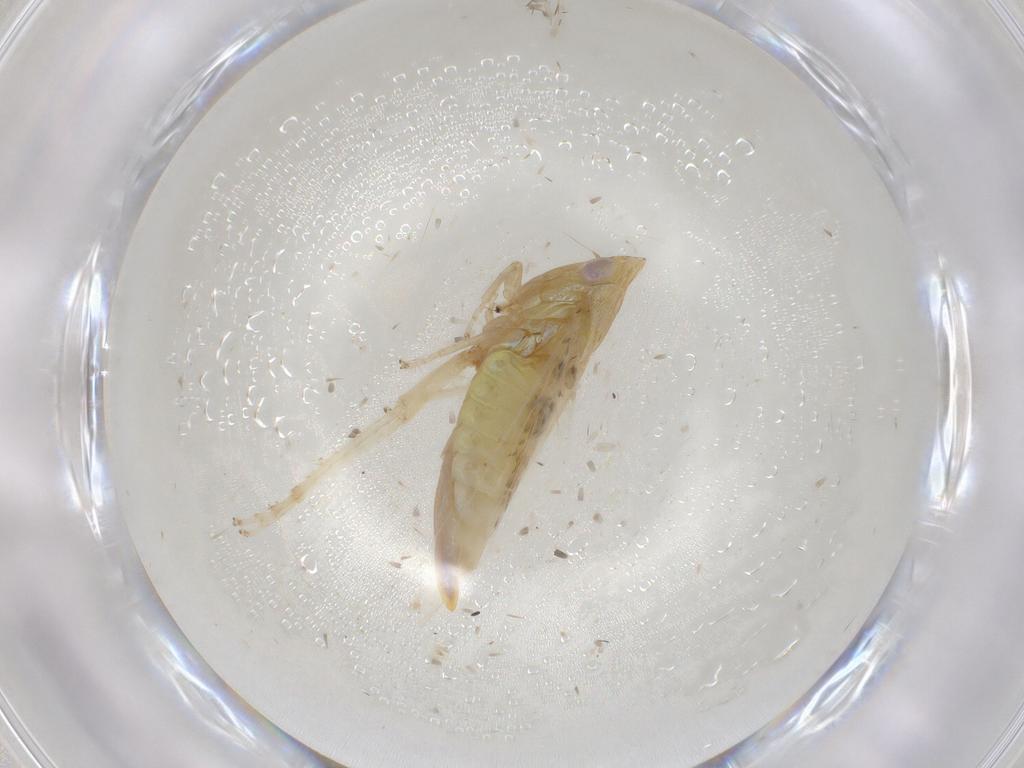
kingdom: Animalia
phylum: Arthropoda
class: Insecta
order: Hemiptera
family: Cicadellidae
